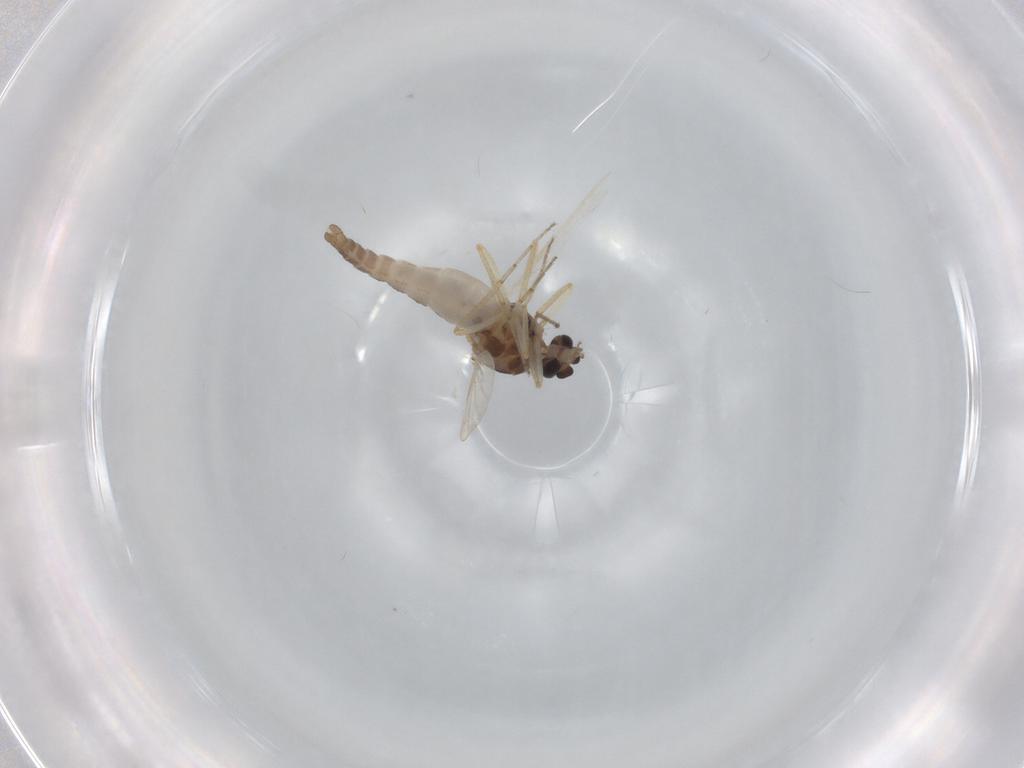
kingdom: Animalia
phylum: Arthropoda
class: Insecta
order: Diptera
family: Ceratopogonidae
